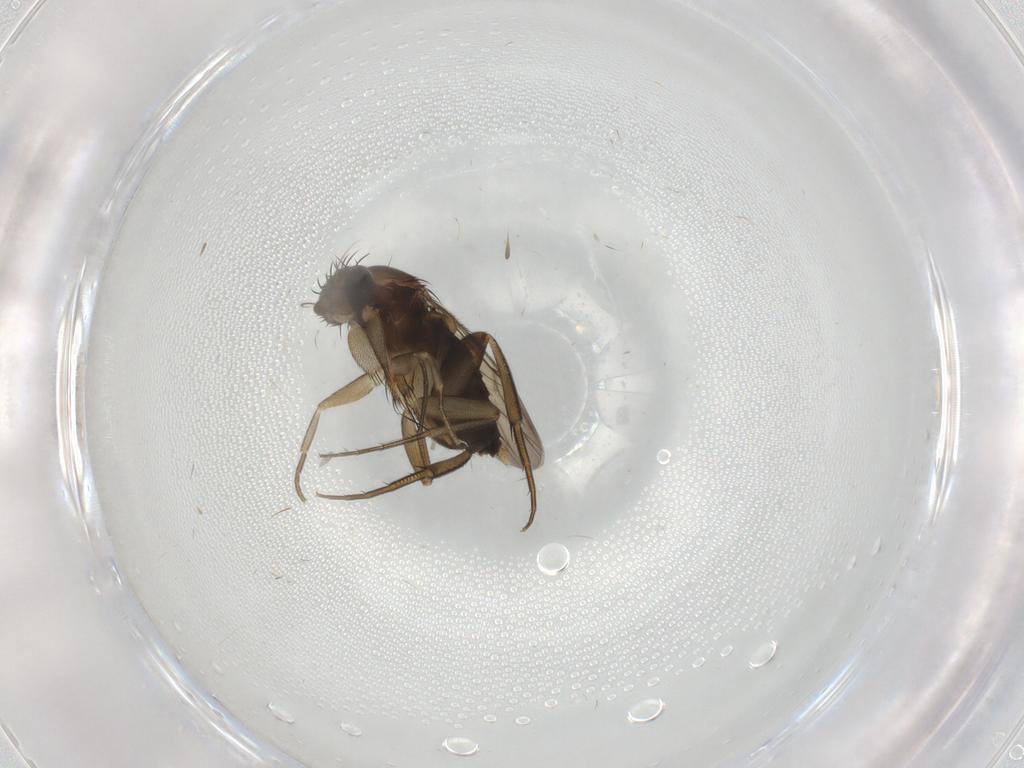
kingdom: Animalia
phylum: Arthropoda
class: Insecta
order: Diptera
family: Phoridae
